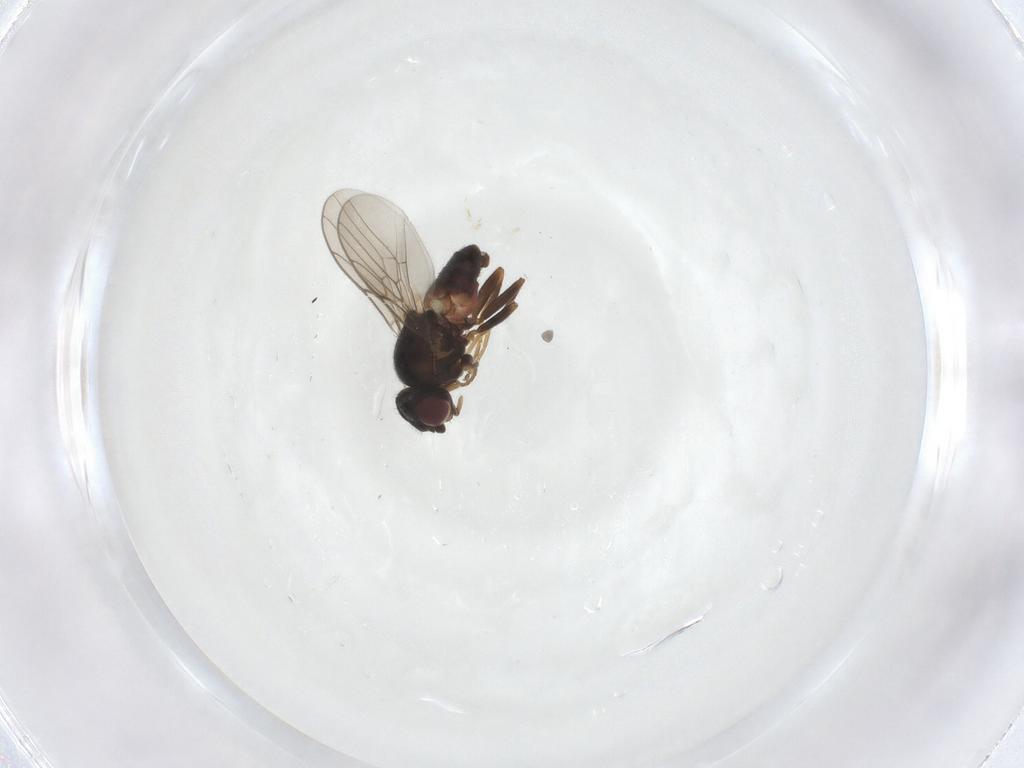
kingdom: Animalia
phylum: Arthropoda
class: Insecta
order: Diptera
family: Chloropidae
